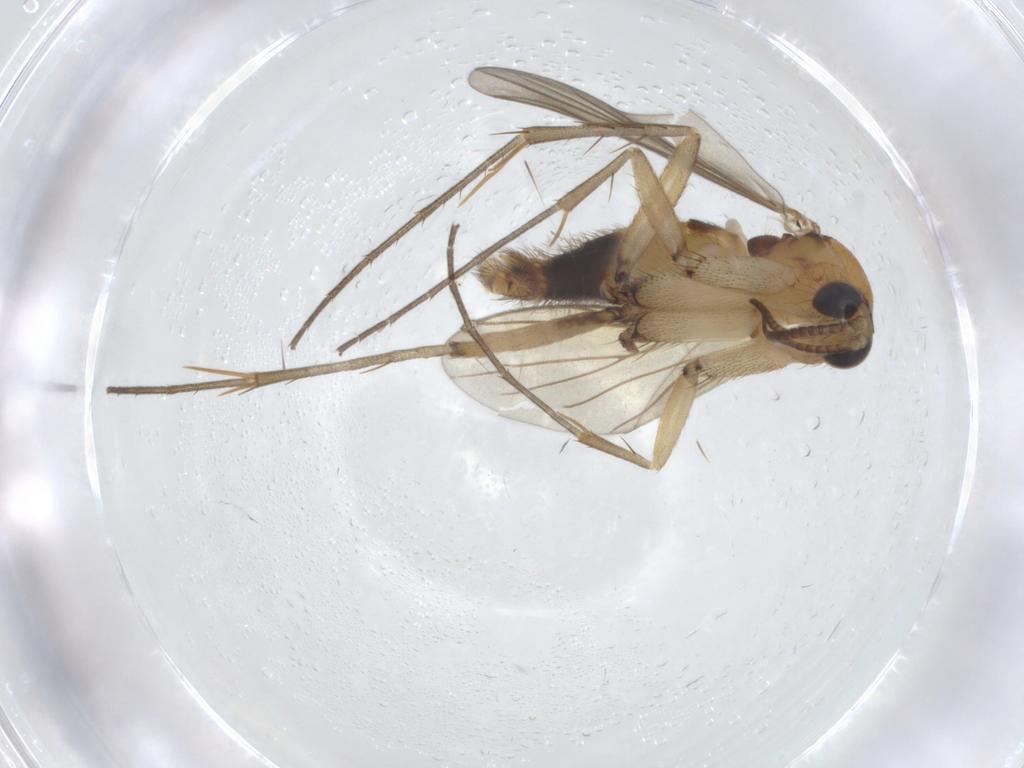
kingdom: Animalia
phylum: Arthropoda
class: Insecta
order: Diptera
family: Mycetophilidae
